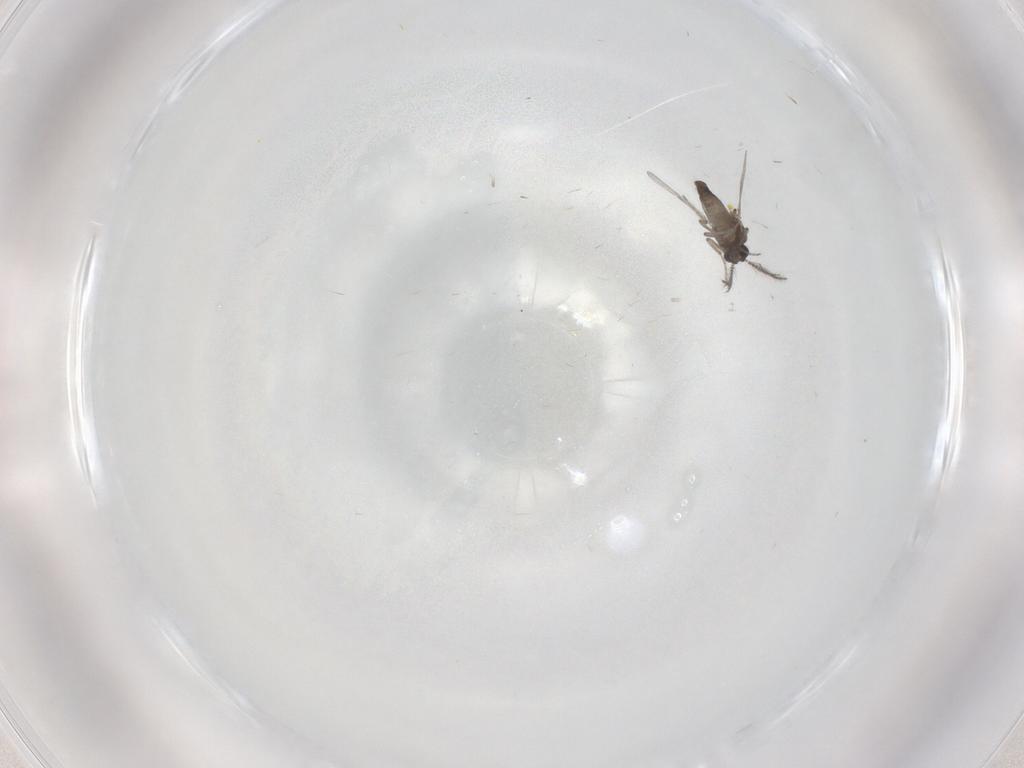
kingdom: Animalia
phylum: Arthropoda
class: Insecta
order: Diptera
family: Ceratopogonidae
